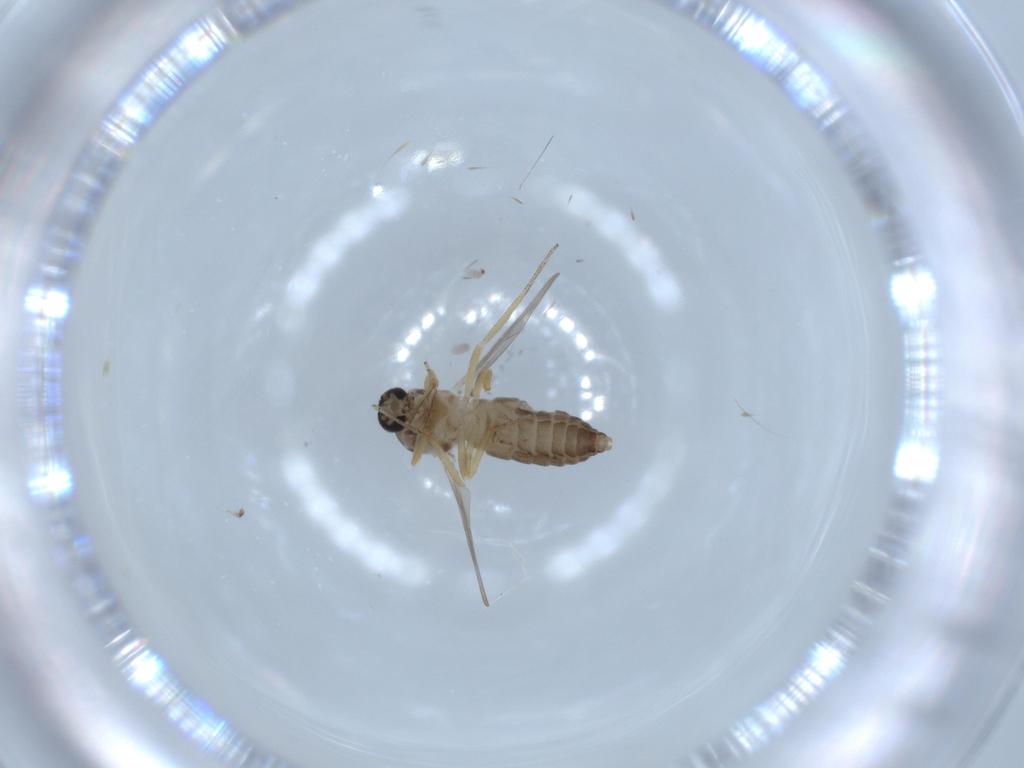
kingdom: Animalia
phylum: Arthropoda
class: Insecta
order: Diptera
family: Ceratopogonidae
